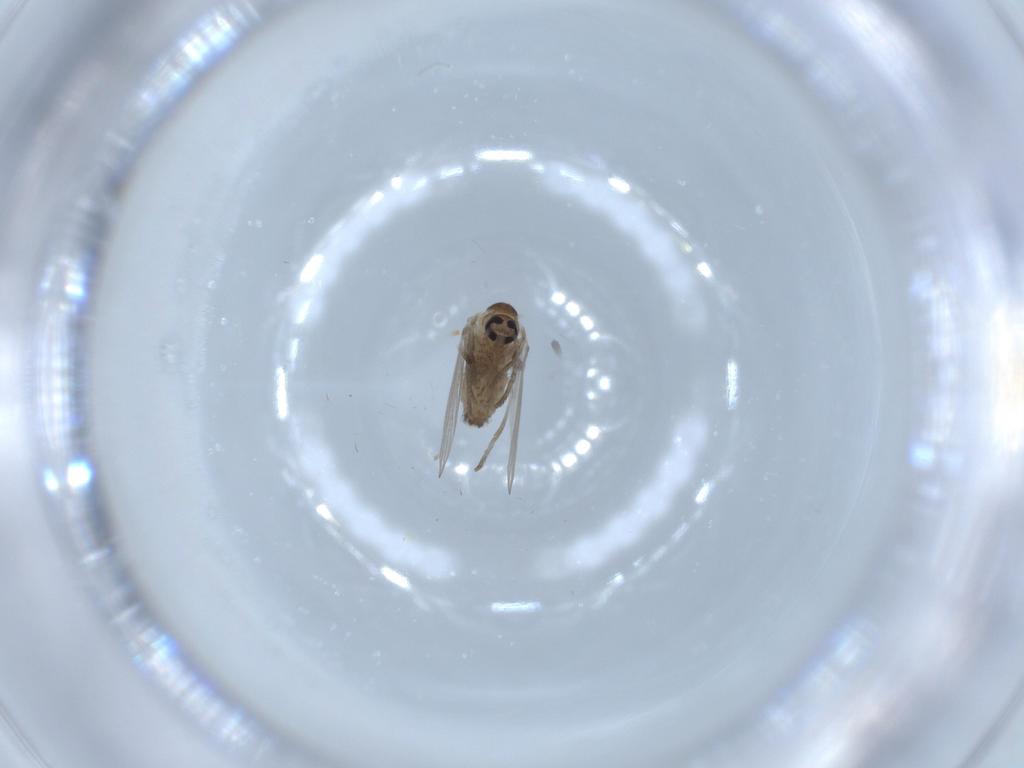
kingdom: Animalia
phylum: Arthropoda
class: Insecta
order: Diptera
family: Psychodidae
